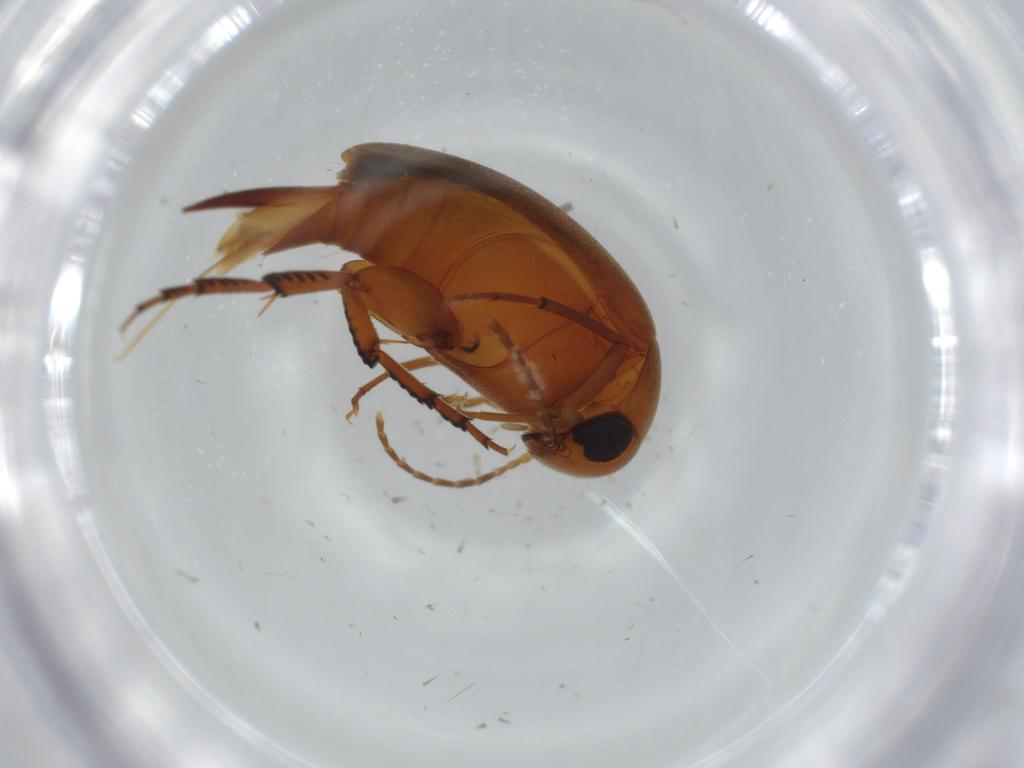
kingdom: Animalia
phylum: Arthropoda
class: Insecta
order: Coleoptera
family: Mordellidae
